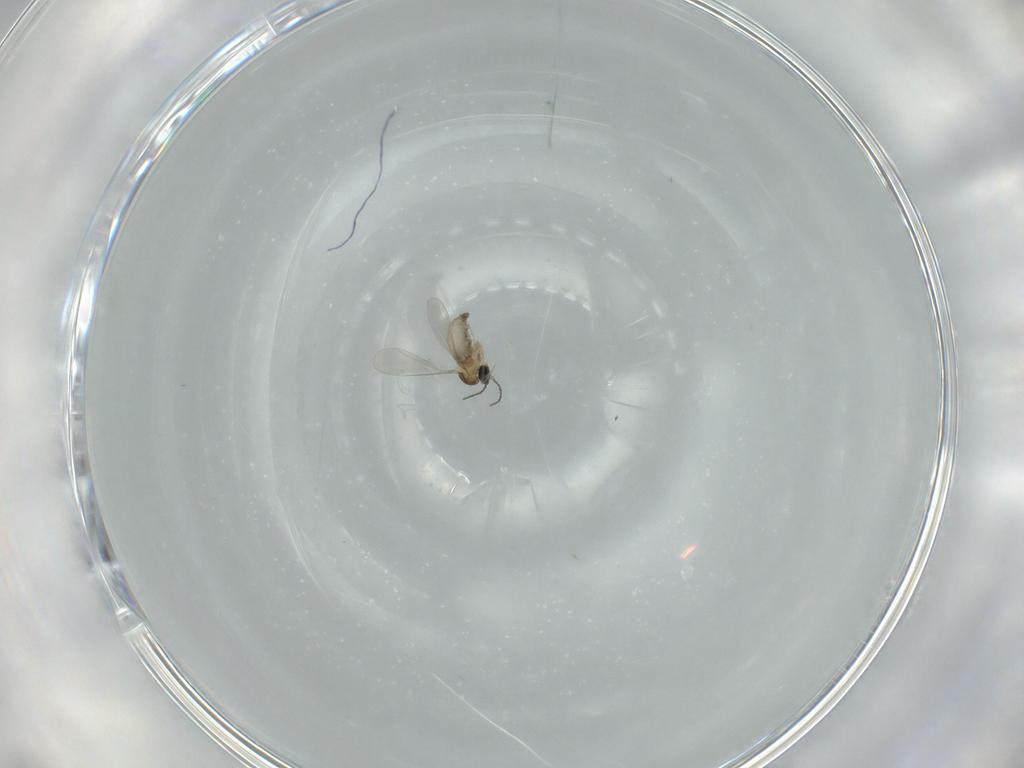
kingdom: Animalia
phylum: Arthropoda
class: Insecta
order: Diptera
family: Cecidomyiidae
